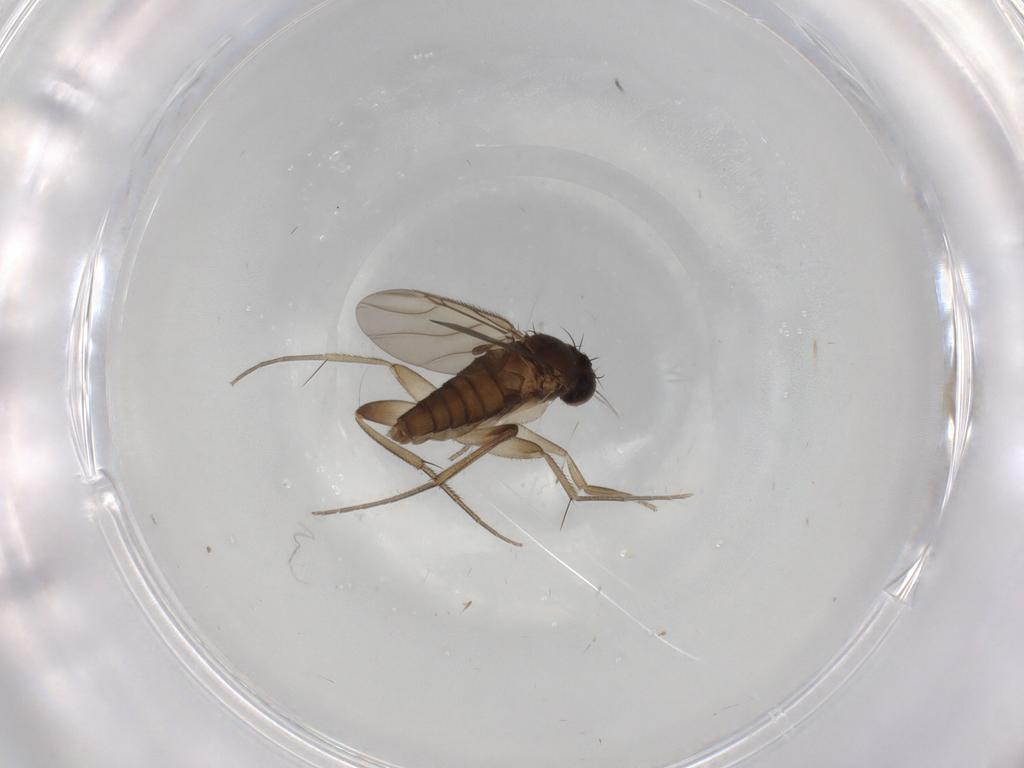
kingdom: Animalia
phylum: Arthropoda
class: Insecta
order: Diptera
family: Phoridae
